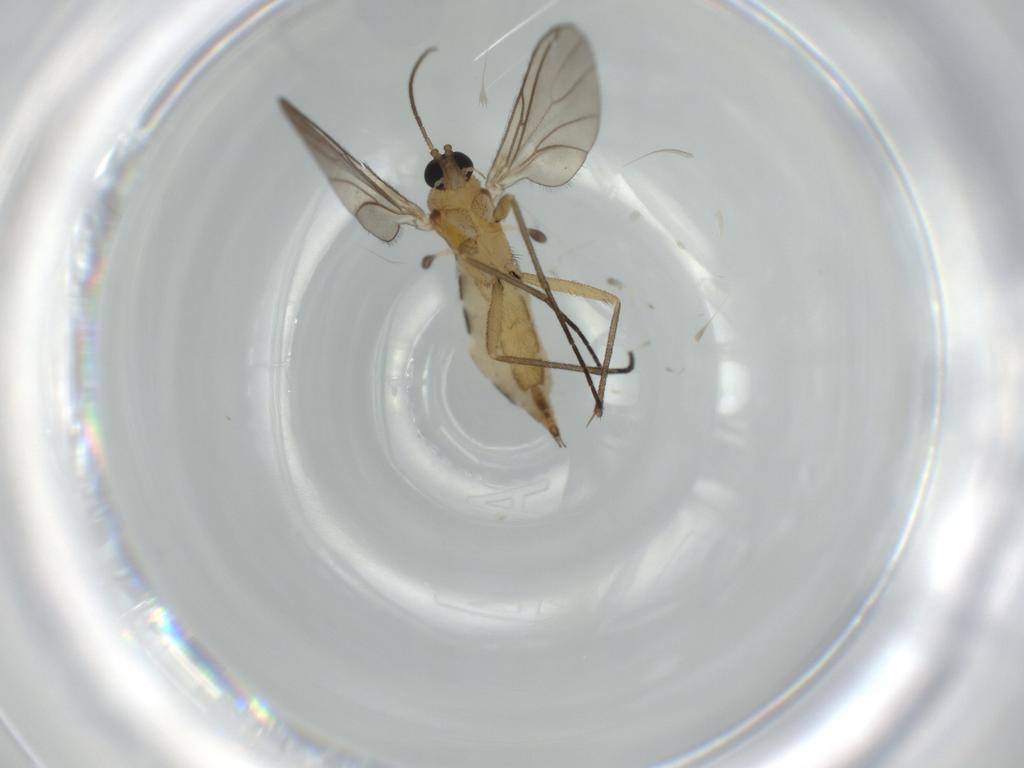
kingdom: Animalia
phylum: Arthropoda
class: Insecta
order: Diptera
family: Sciaridae
